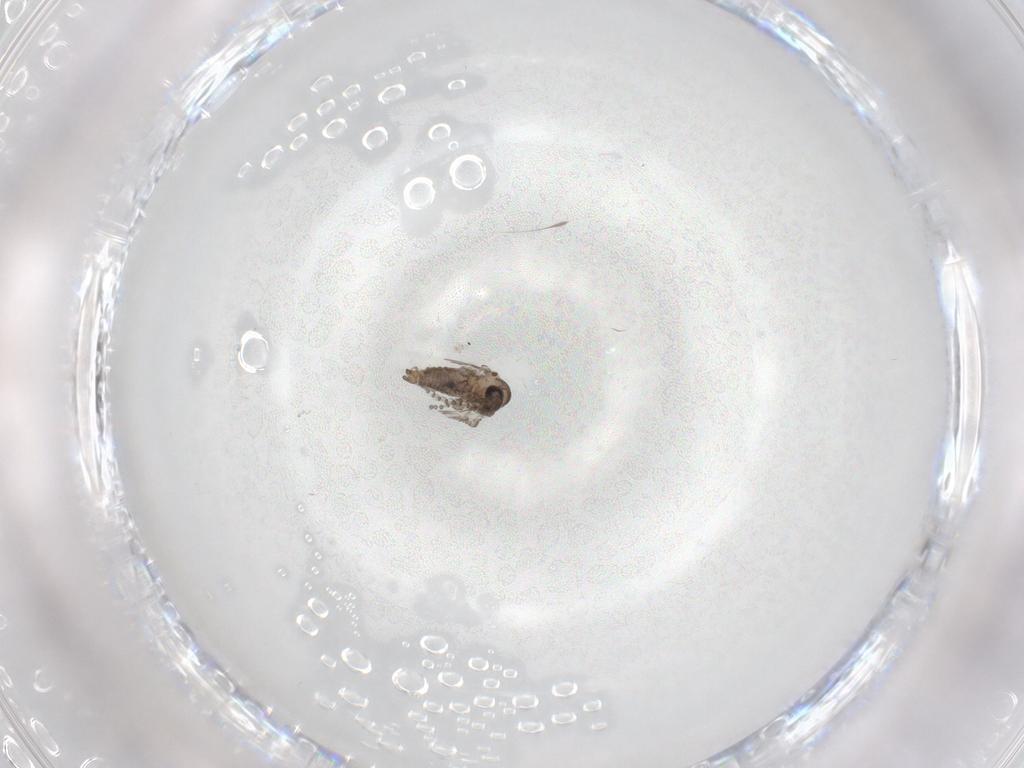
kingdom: Animalia
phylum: Arthropoda
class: Insecta
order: Diptera
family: Psychodidae
